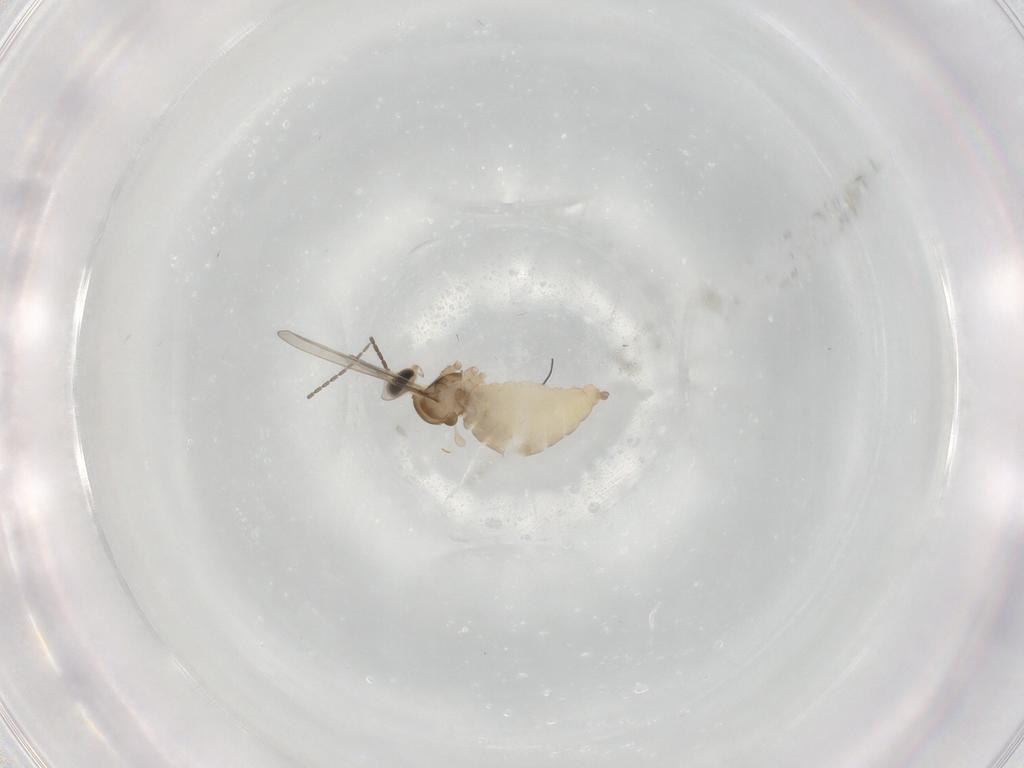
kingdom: Animalia
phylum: Arthropoda
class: Insecta
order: Diptera
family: Cecidomyiidae
